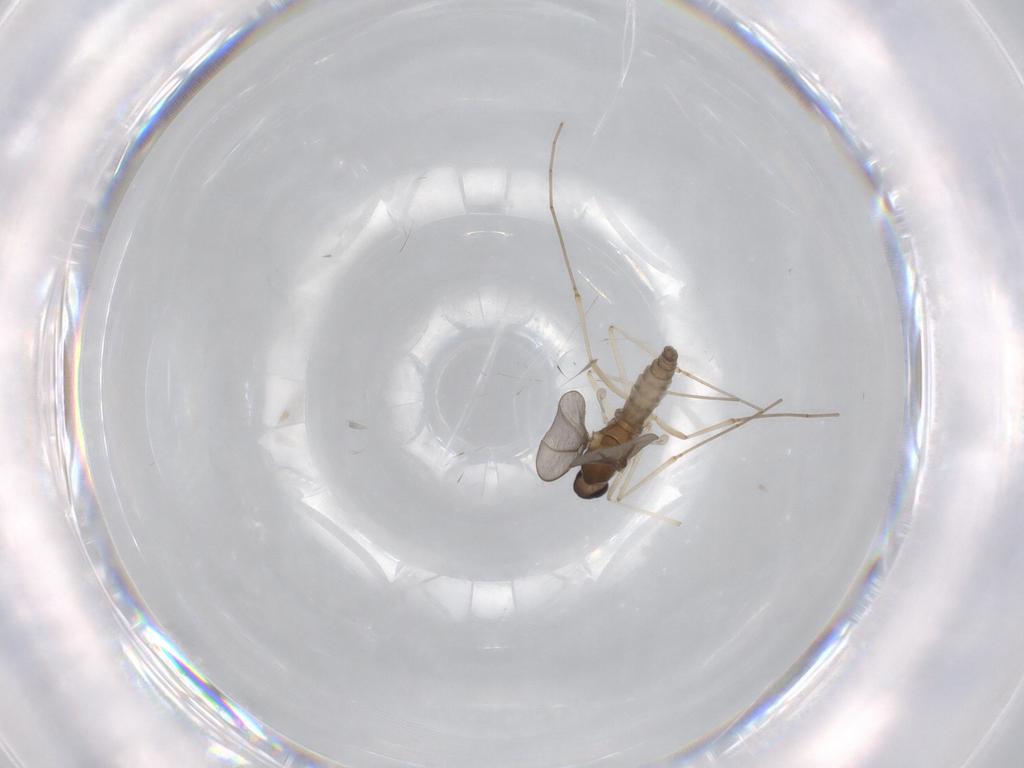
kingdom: Animalia
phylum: Arthropoda
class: Insecta
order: Diptera
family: Cecidomyiidae
